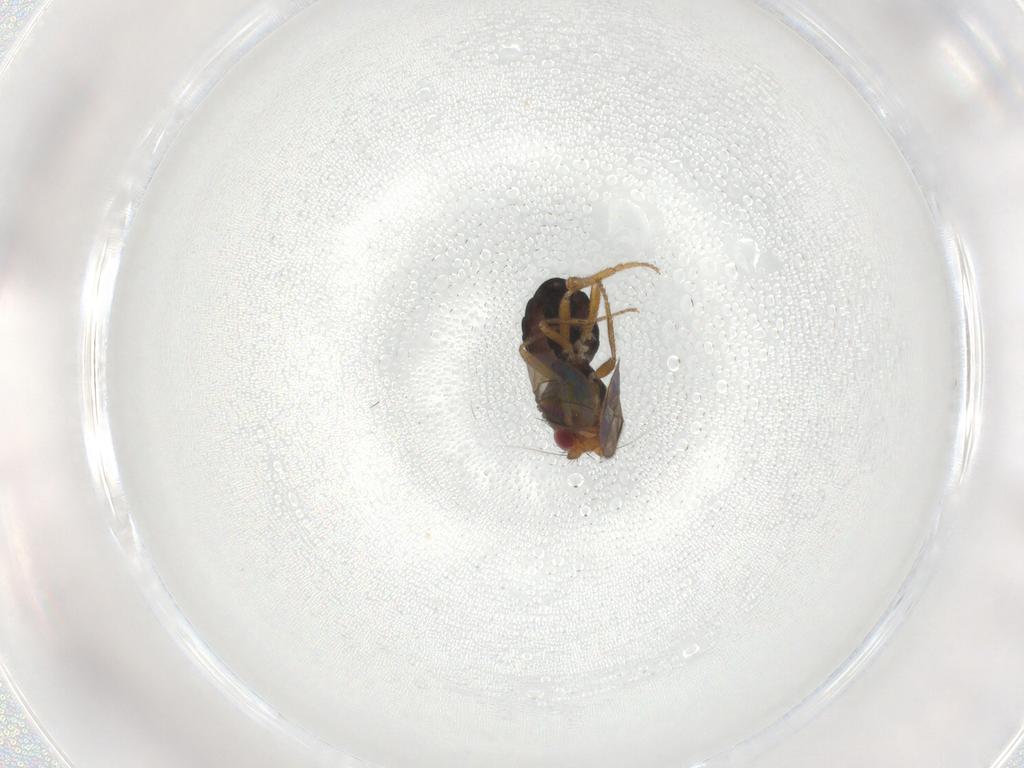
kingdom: Animalia
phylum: Arthropoda
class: Insecta
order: Diptera
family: Sphaeroceridae
